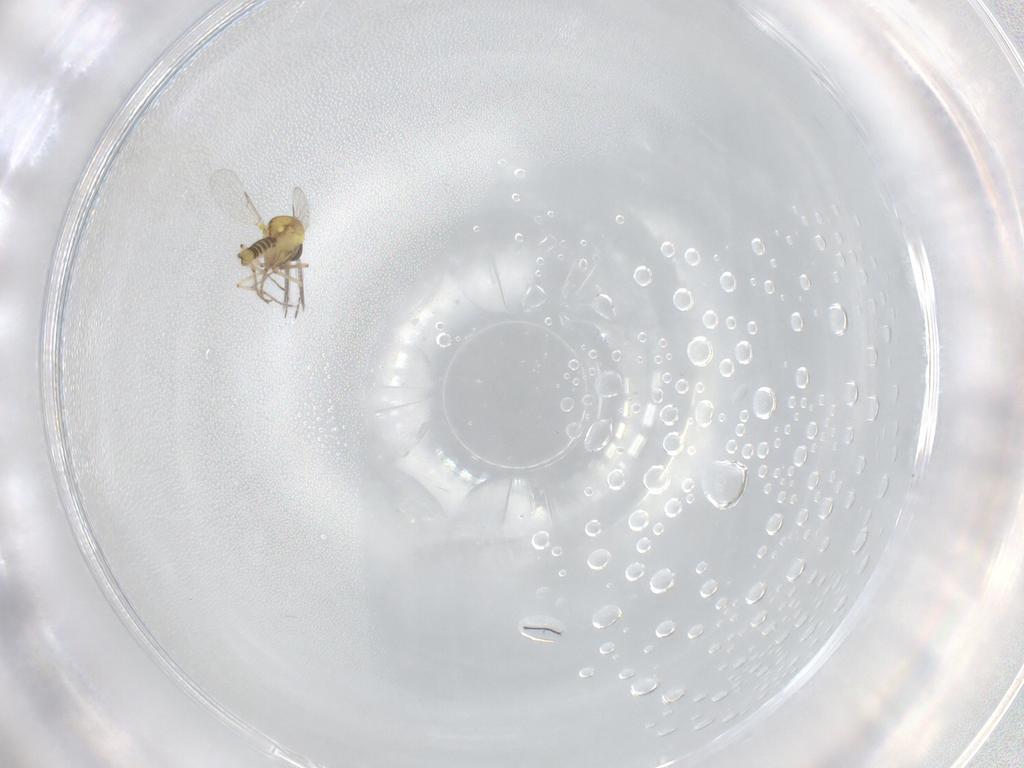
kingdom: Animalia
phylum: Arthropoda
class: Insecta
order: Diptera
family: Ceratopogonidae
